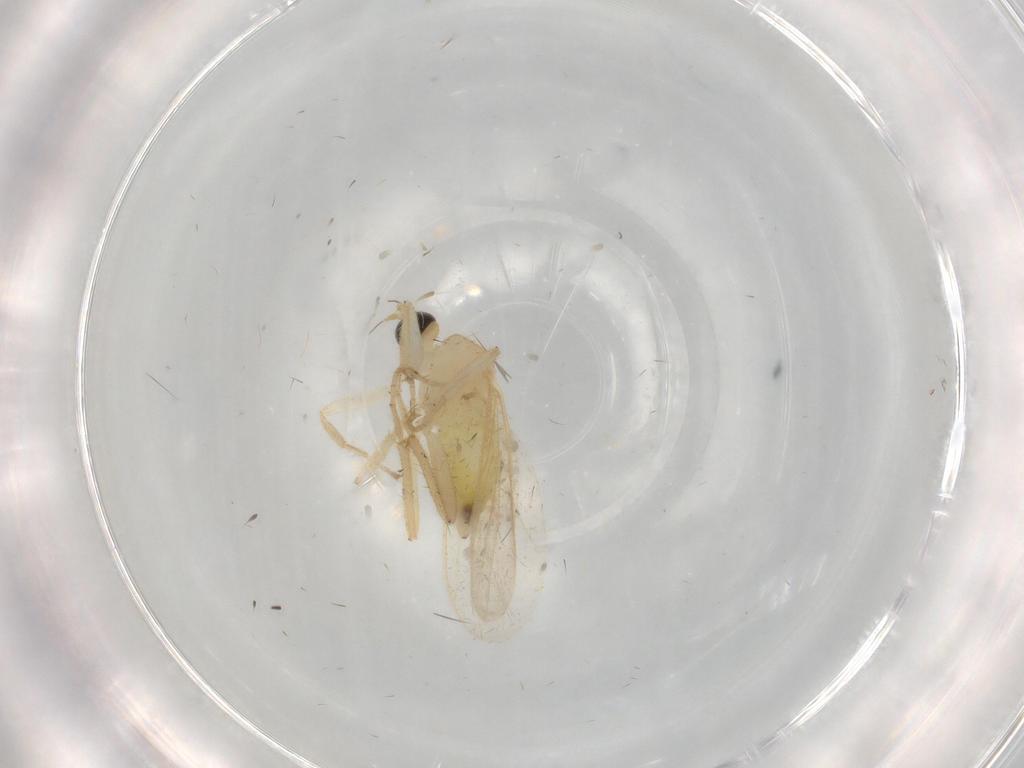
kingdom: Animalia
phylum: Arthropoda
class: Insecta
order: Diptera
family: Hybotidae
